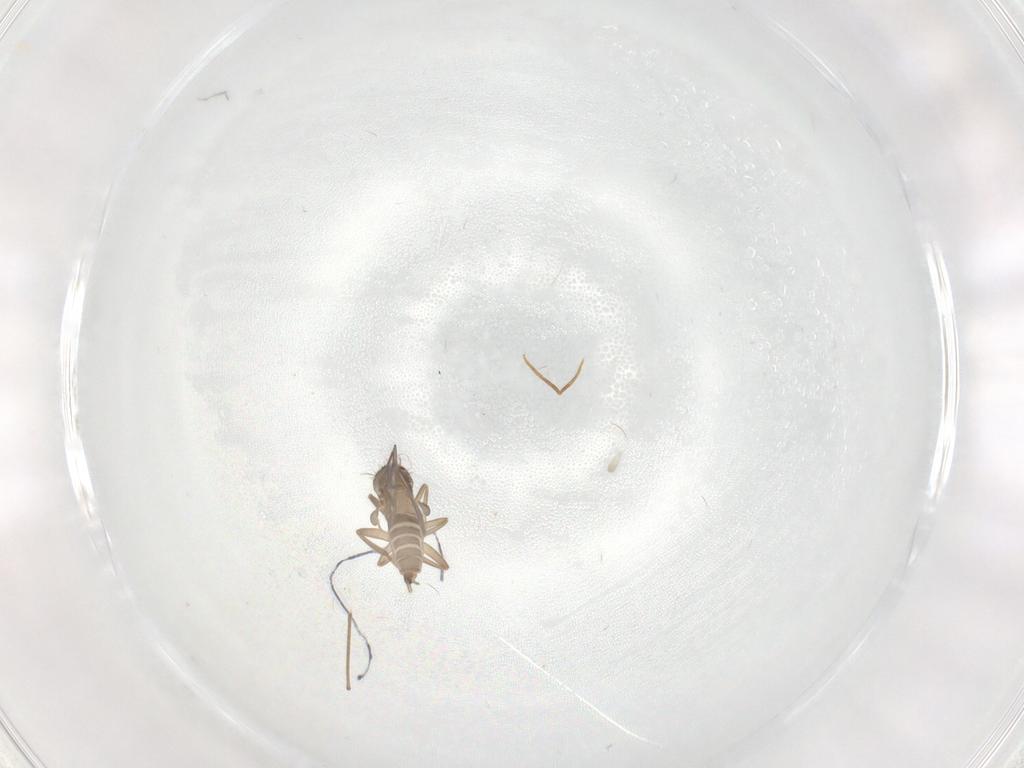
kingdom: Animalia
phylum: Arthropoda
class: Insecta
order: Diptera
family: Cecidomyiidae
